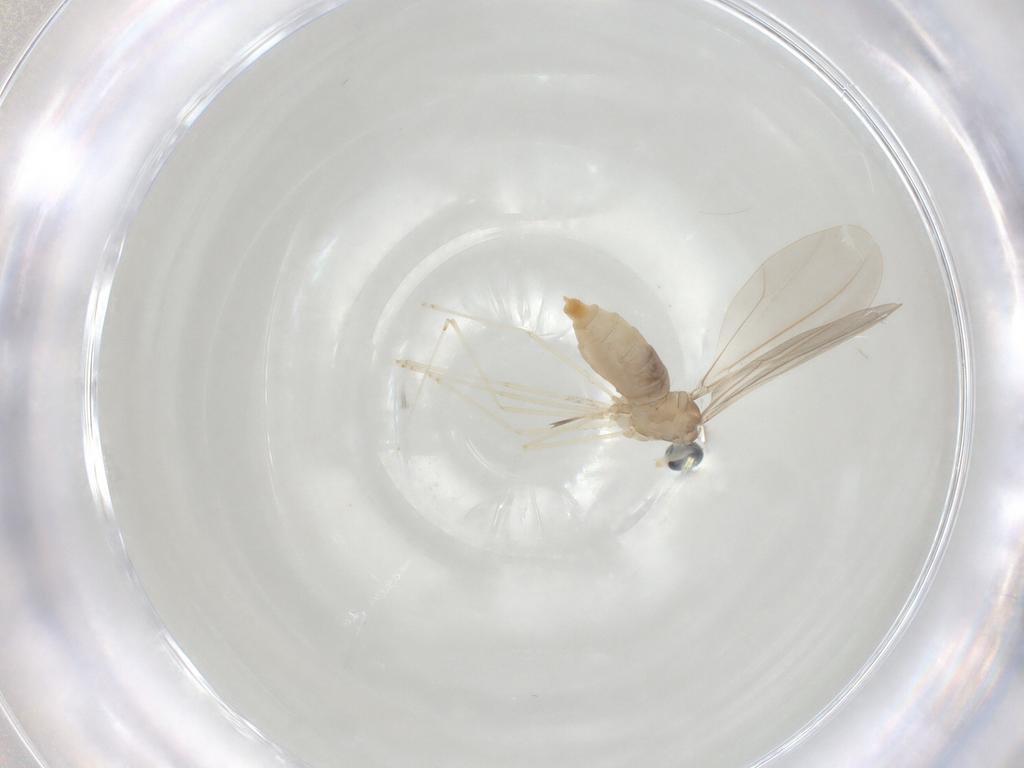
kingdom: Animalia
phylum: Arthropoda
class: Insecta
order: Diptera
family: Cecidomyiidae
